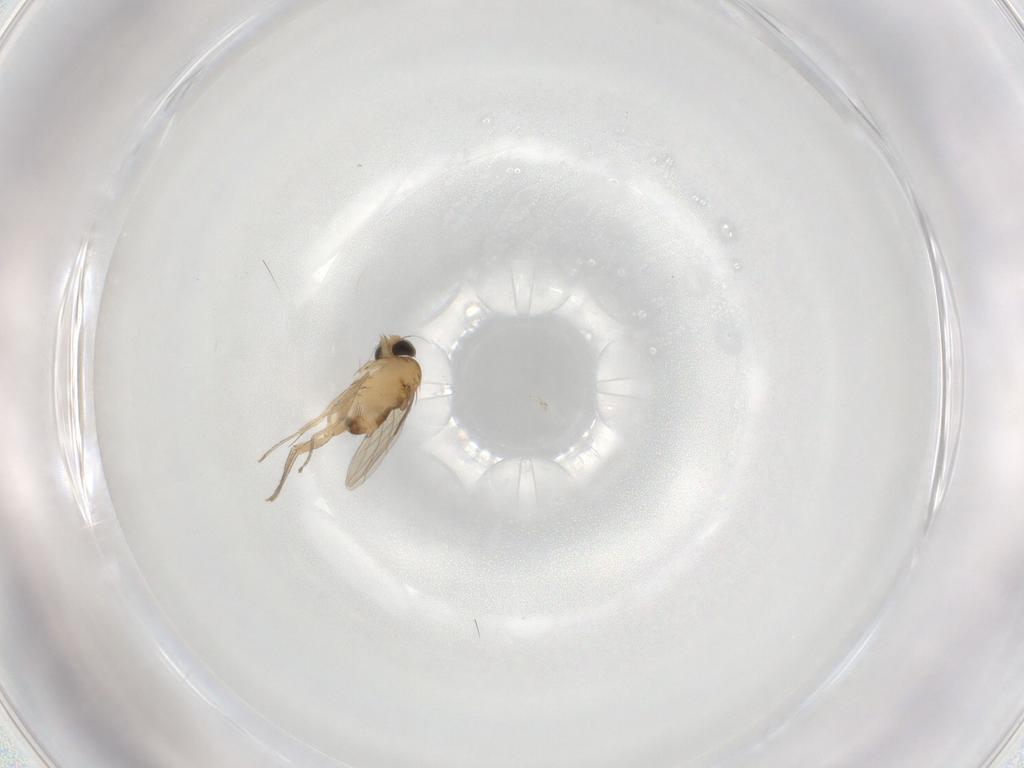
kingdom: Animalia
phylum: Arthropoda
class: Insecta
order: Diptera
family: Phoridae
